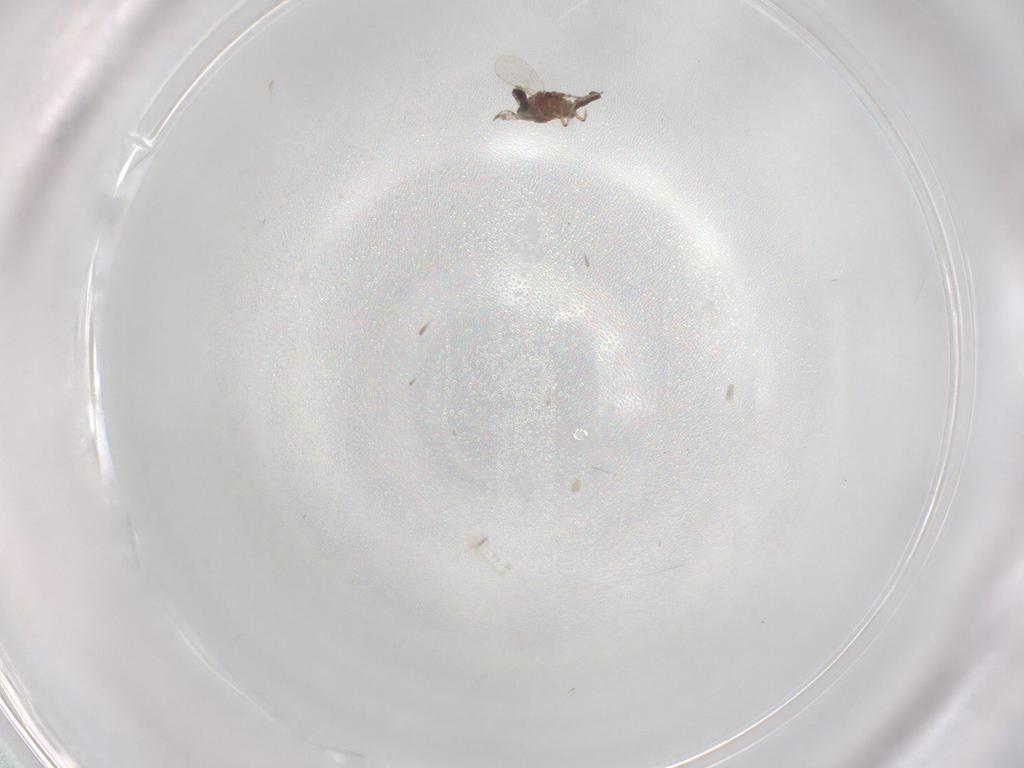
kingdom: Animalia
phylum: Arthropoda
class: Insecta
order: Diptera
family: Ceratopogonidae
